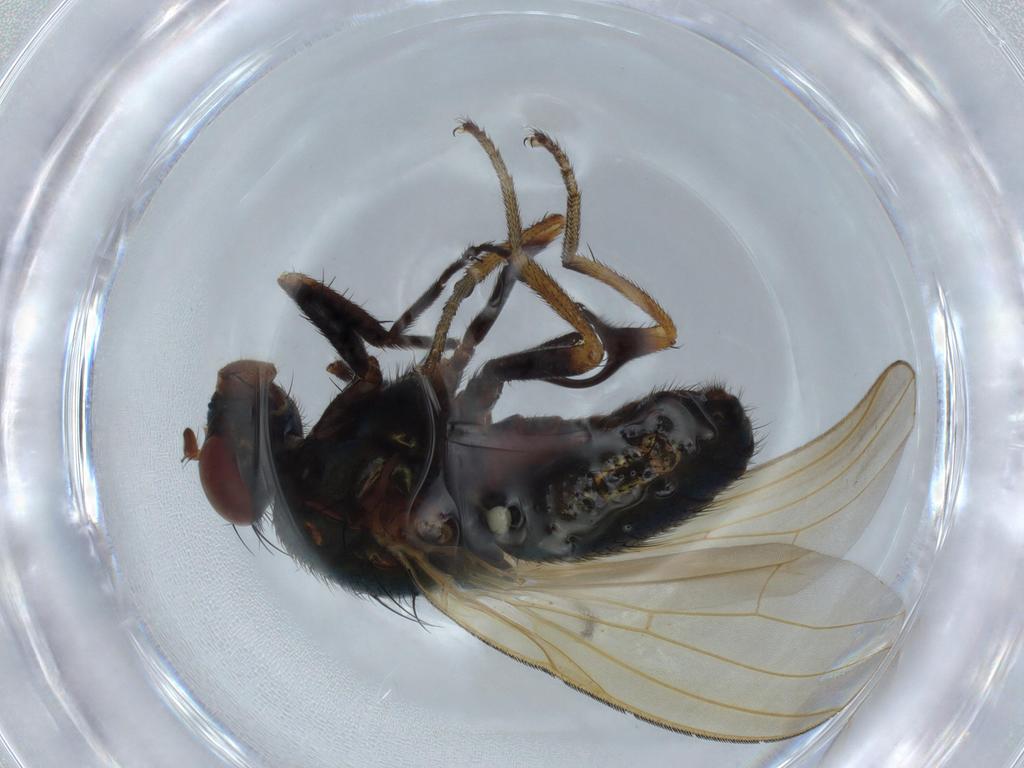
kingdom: Animalia
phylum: Arthropoda
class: Insecta
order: Diptera
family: Lauxaniidae
